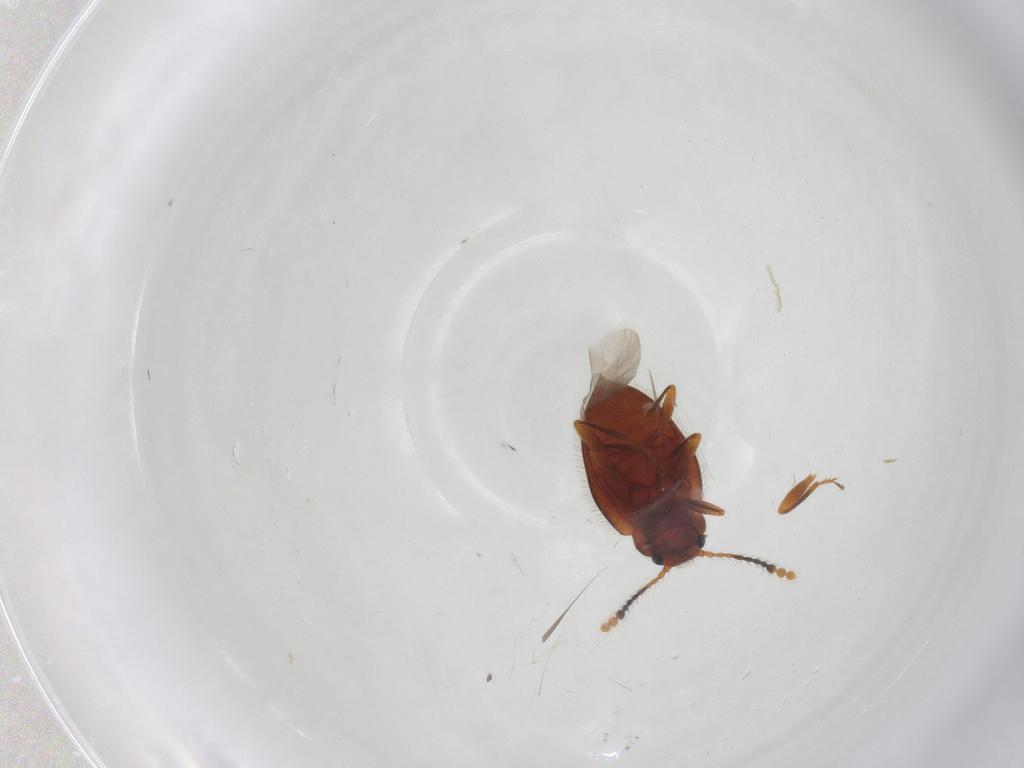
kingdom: Animalia
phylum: Arthropoda
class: Insecta
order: Coleoptera
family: Erotylidae
